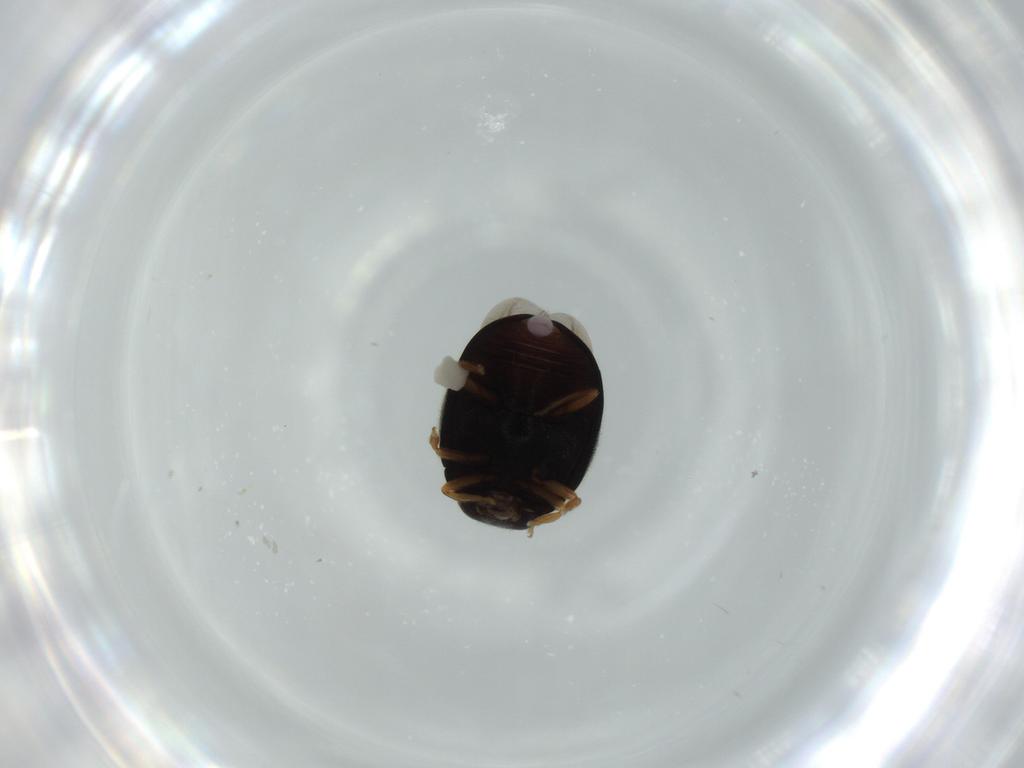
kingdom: Animalia
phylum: Arthropoda
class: Insecta
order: Coleoptera
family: Coccinellidae
